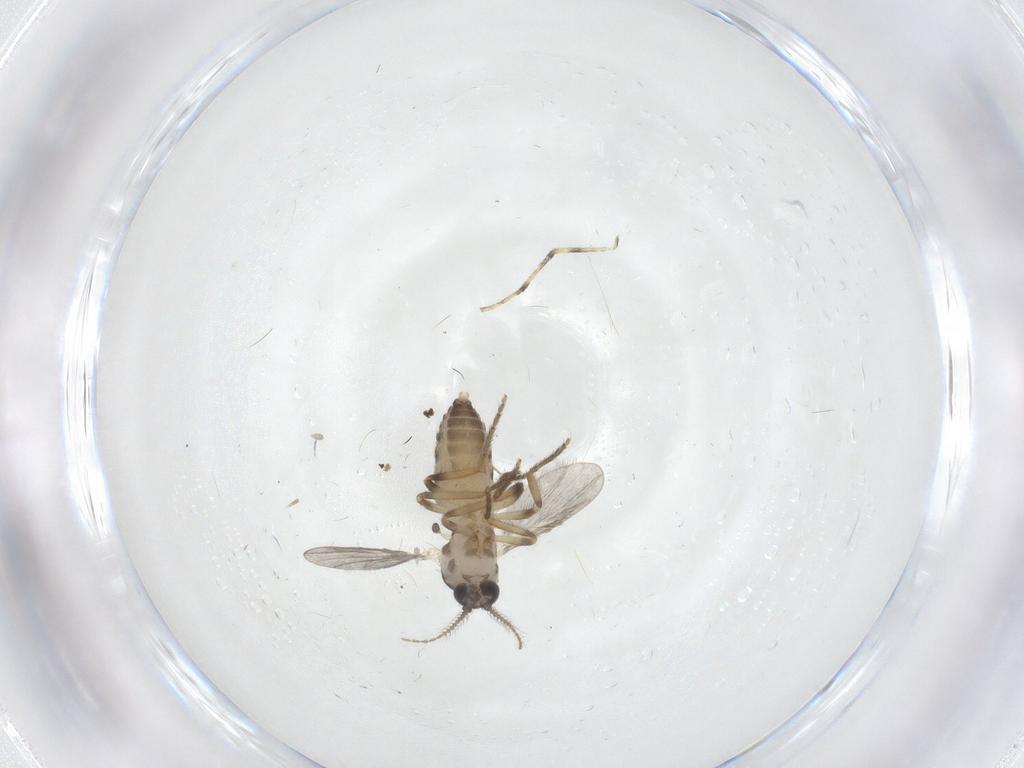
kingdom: Animalia
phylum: Arthropoda
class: Insecta
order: Diptera
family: Ceratopogonidae
